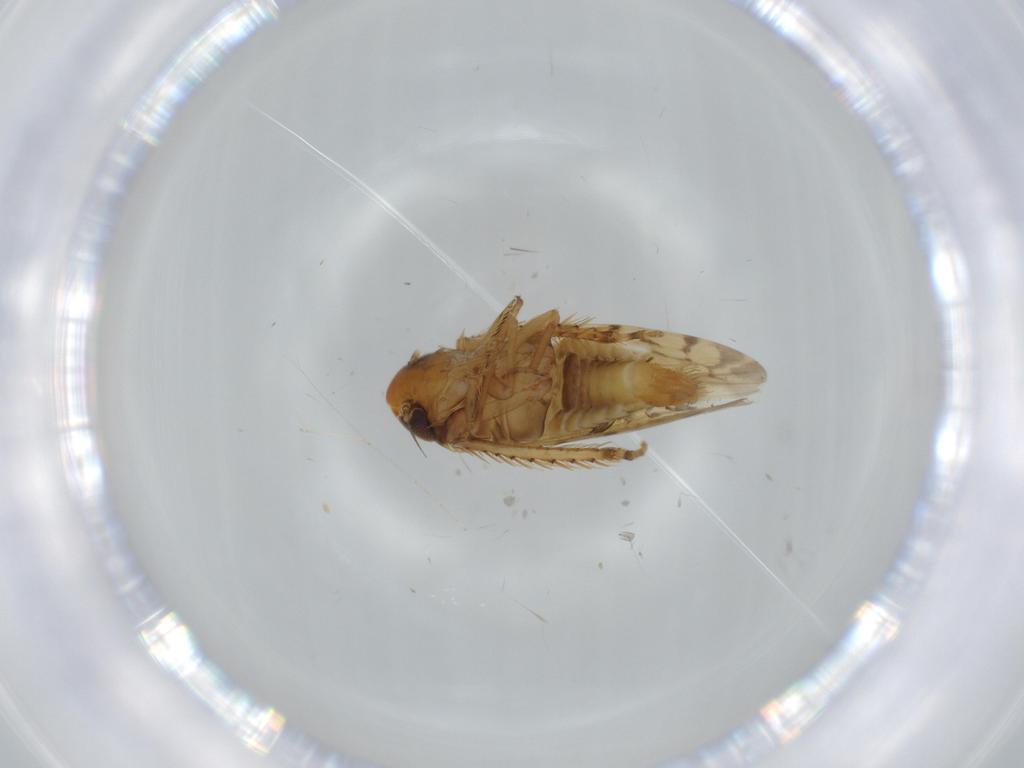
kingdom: Animalia
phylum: Arthropoda
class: Insecta
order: Hemiptera
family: Cicadellidae
